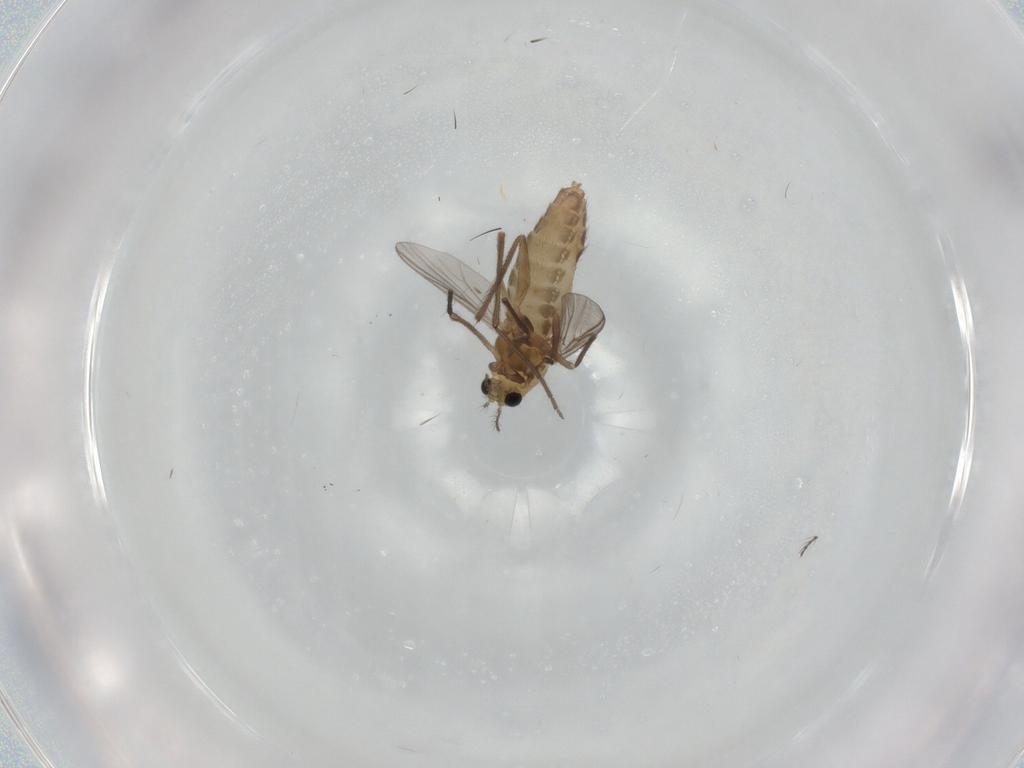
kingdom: Animalia
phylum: Arthropoda
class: Insecta
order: Diptera
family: Chironomidae
